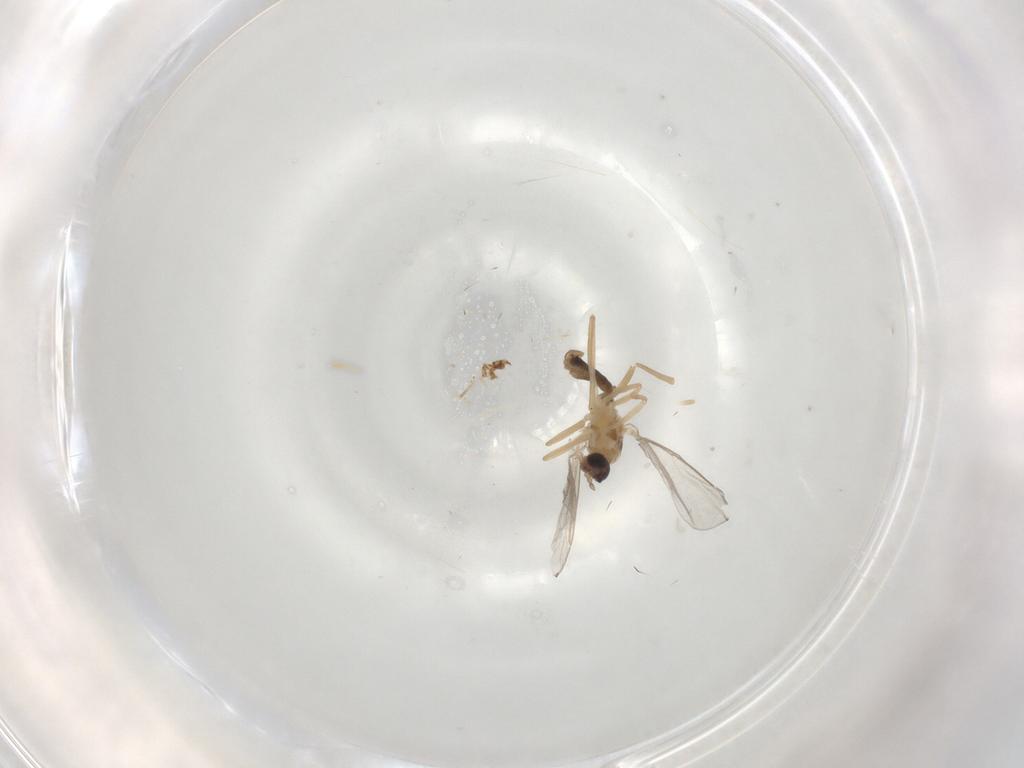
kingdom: Animalia
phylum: Arthropoda
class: Insecta
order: Diptera
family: Cecidomyiidae
